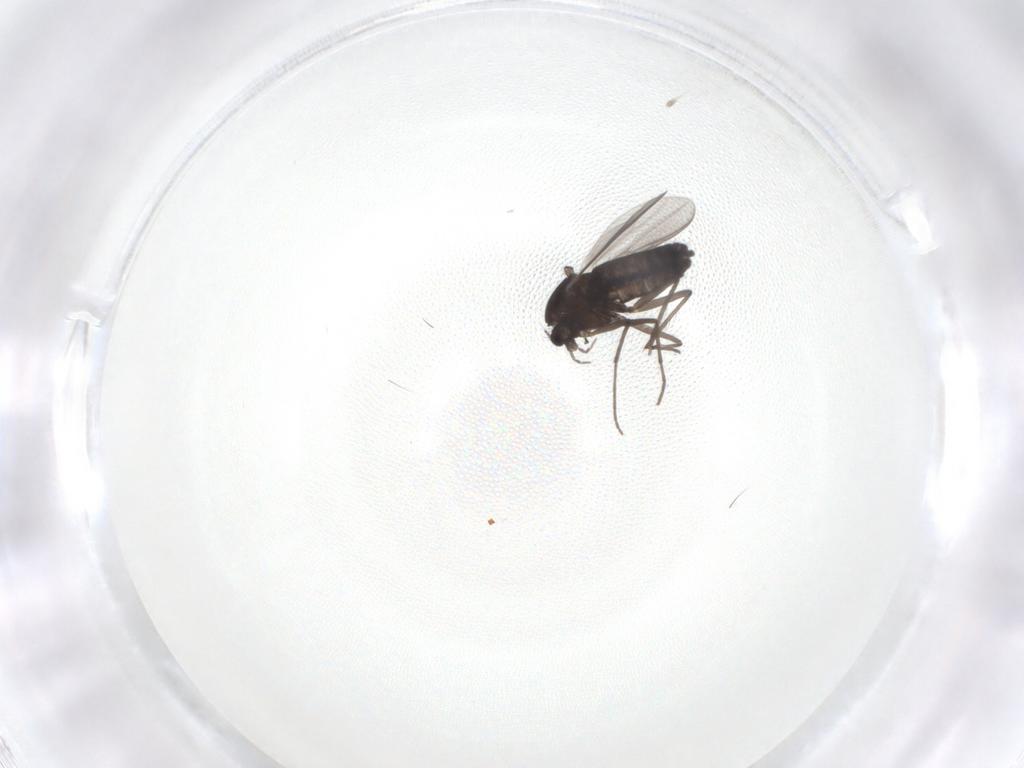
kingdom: Animalia
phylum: Arthropoda
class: Insecta
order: Diptera
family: Chironomidae
